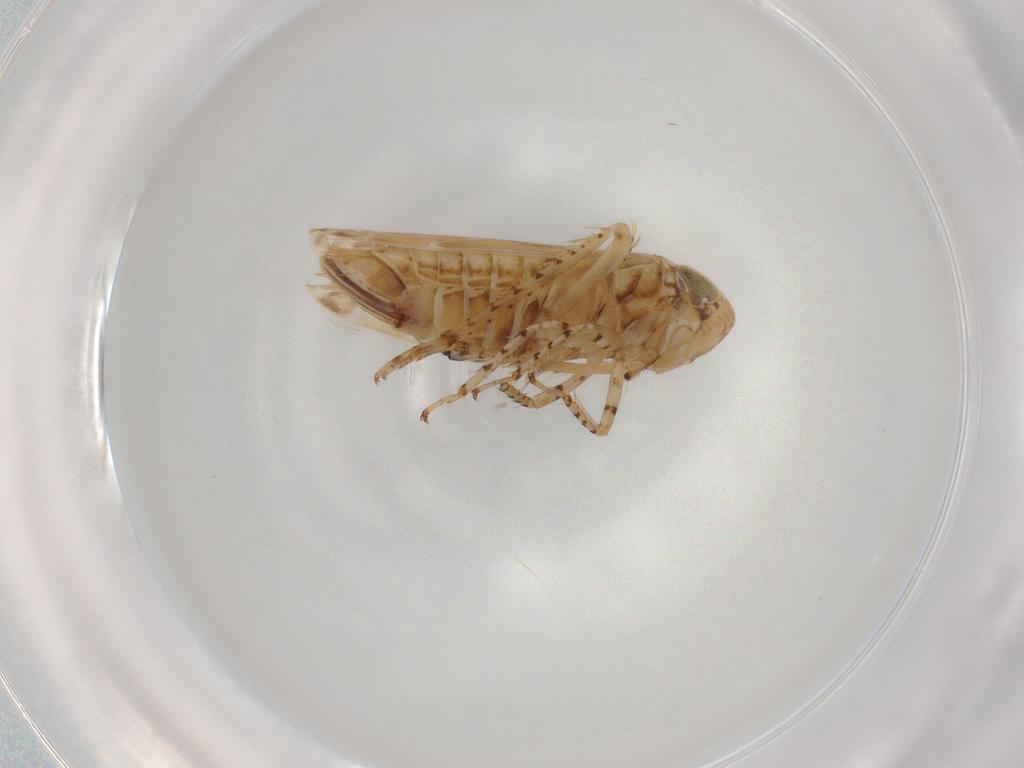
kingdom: Animalia
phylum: Arthropoda
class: Insecta
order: Hemiptera
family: Cicadellidae
